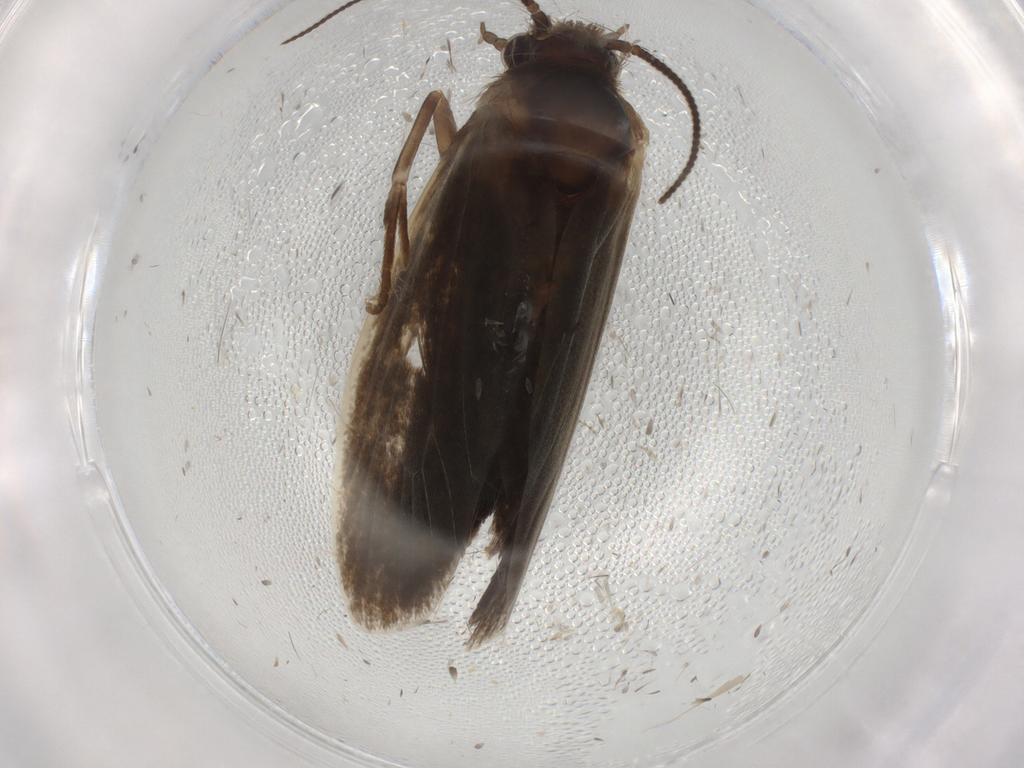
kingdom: Animalia
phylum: Arthropoda
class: Insecta
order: Lepidoptera
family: Tineidae
